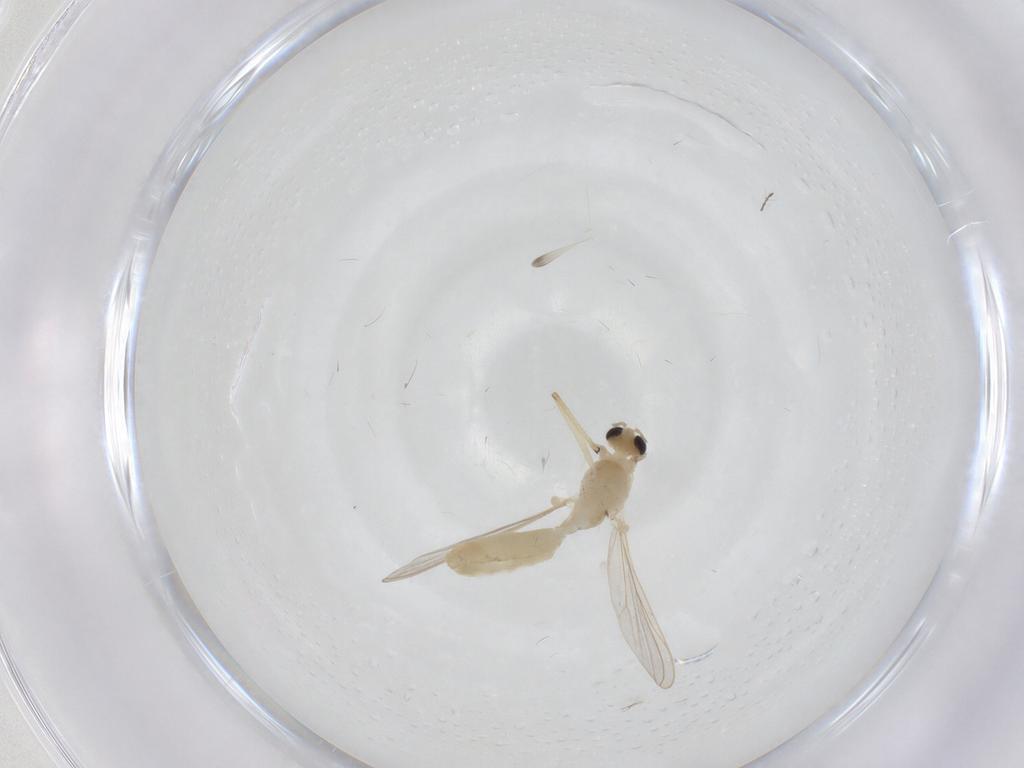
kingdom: Animalia
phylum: Arthropoda
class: Insecta
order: Diptera
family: Chironomidae
